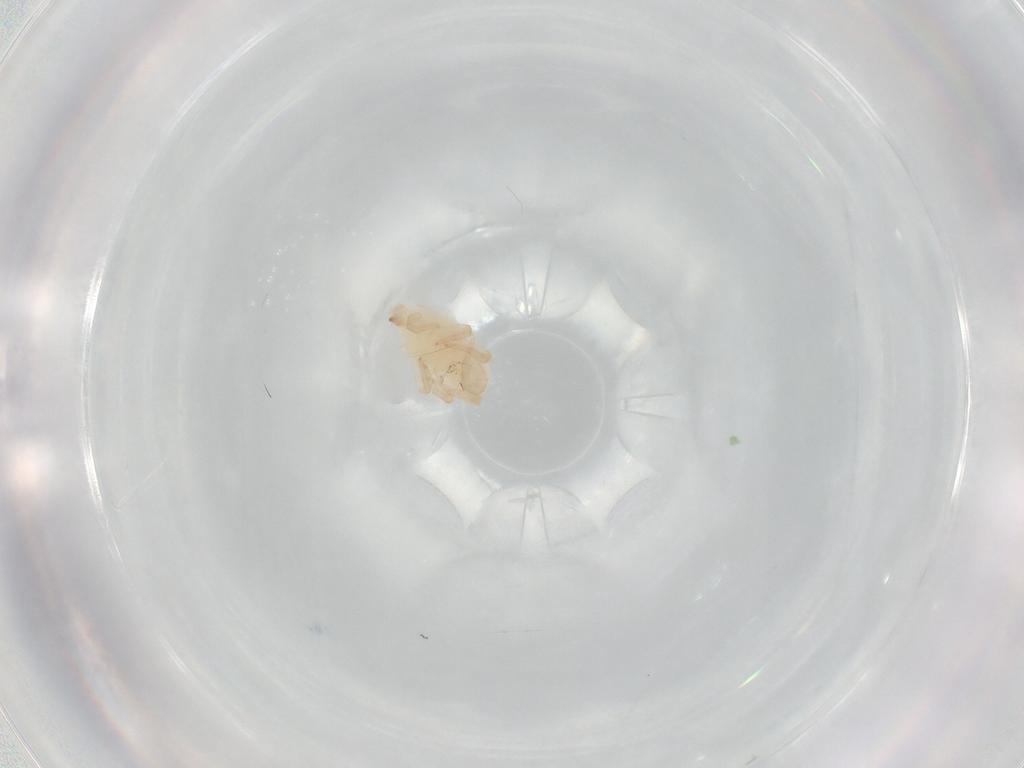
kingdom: Animalia
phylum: Arthropoda
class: Arachnida
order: Trombidiformes
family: Bdellidae
